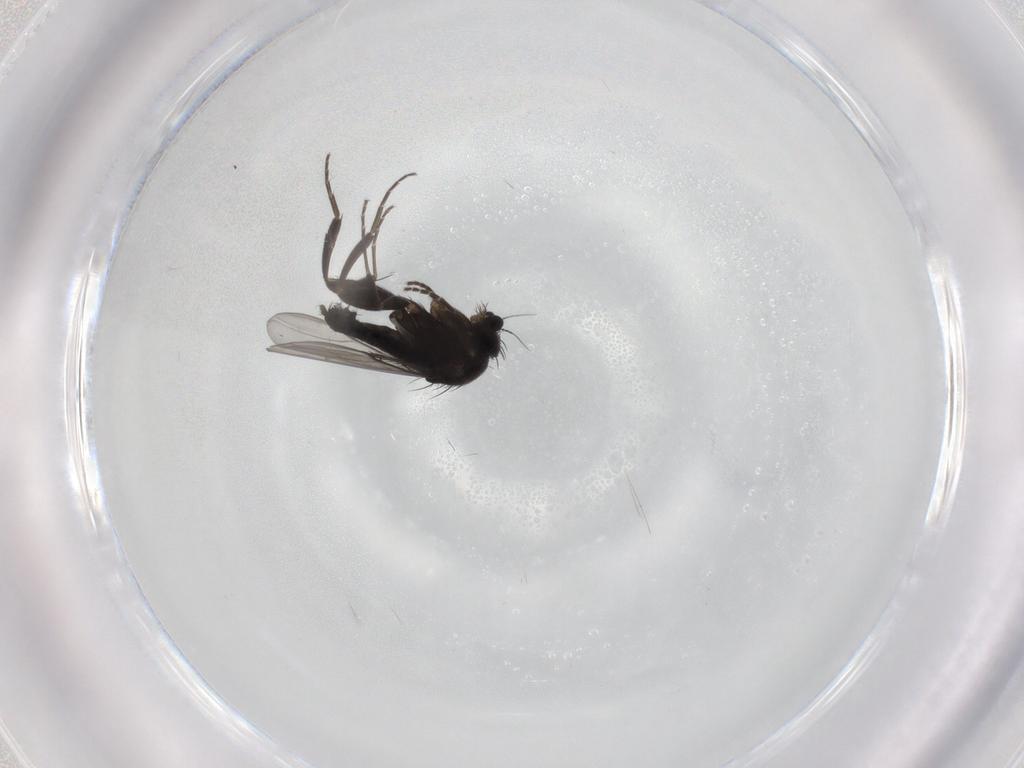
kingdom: Animalia
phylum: Arthropoda
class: Insecta
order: Diptera
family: Phoridae
